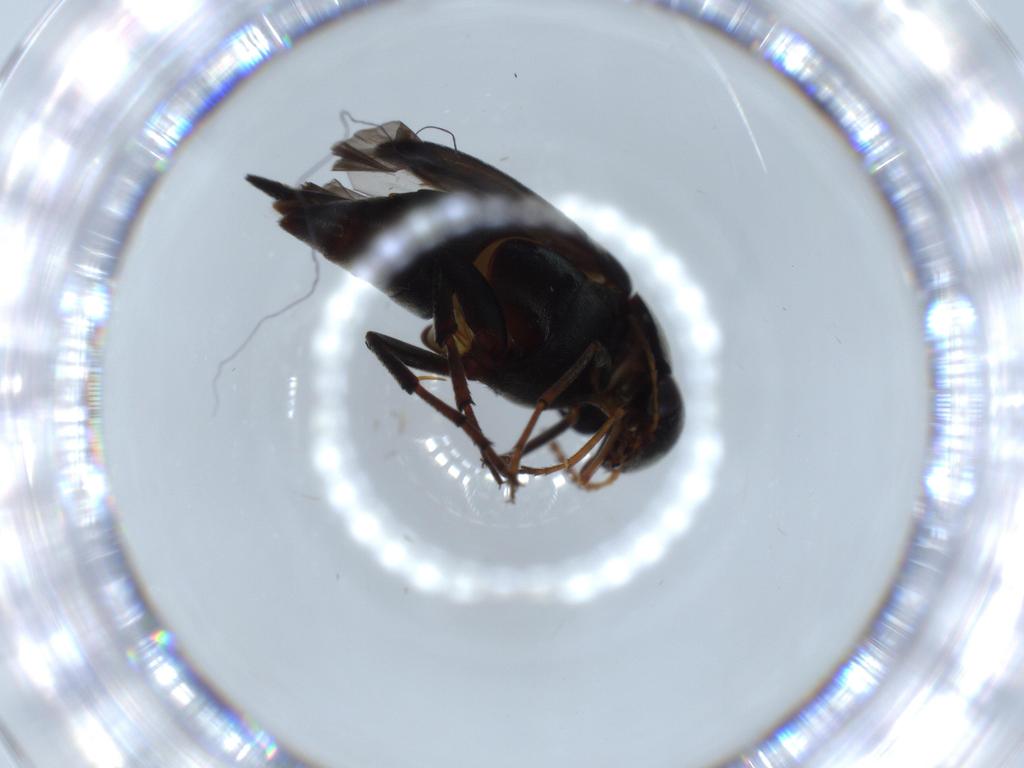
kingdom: Animalia
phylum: Arthropoda
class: Insecta
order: Coleoptera
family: Mordellidae
